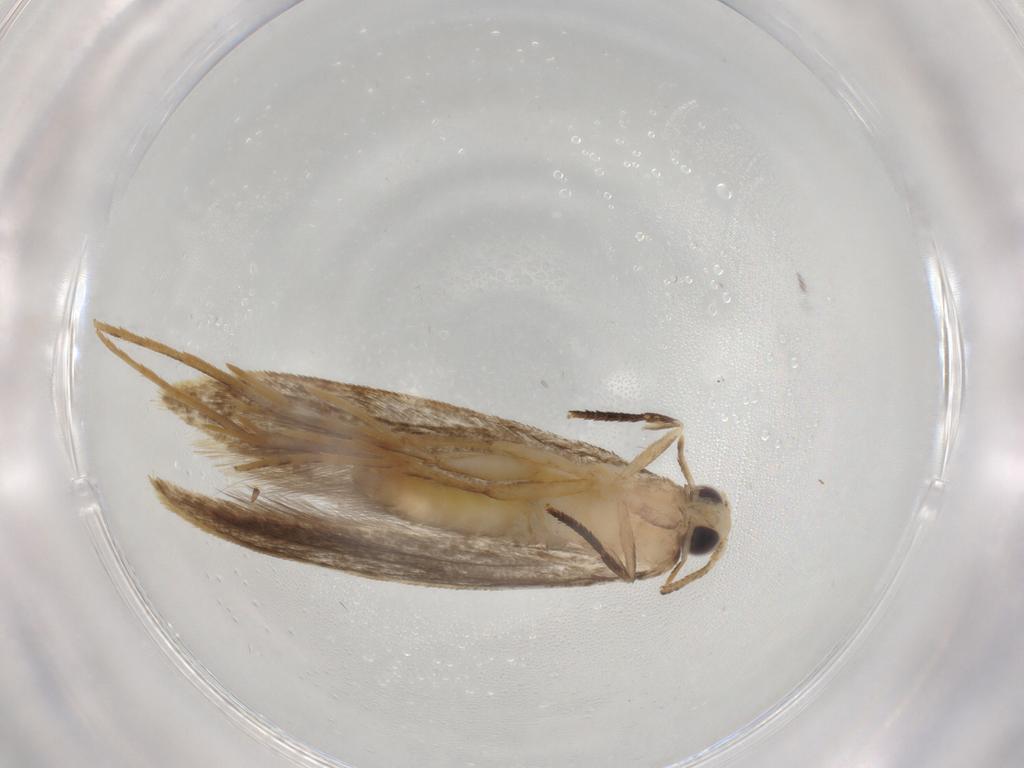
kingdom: Animalia
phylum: Arthropoda
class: Insecta
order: Lepidoptera
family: Tineidae
